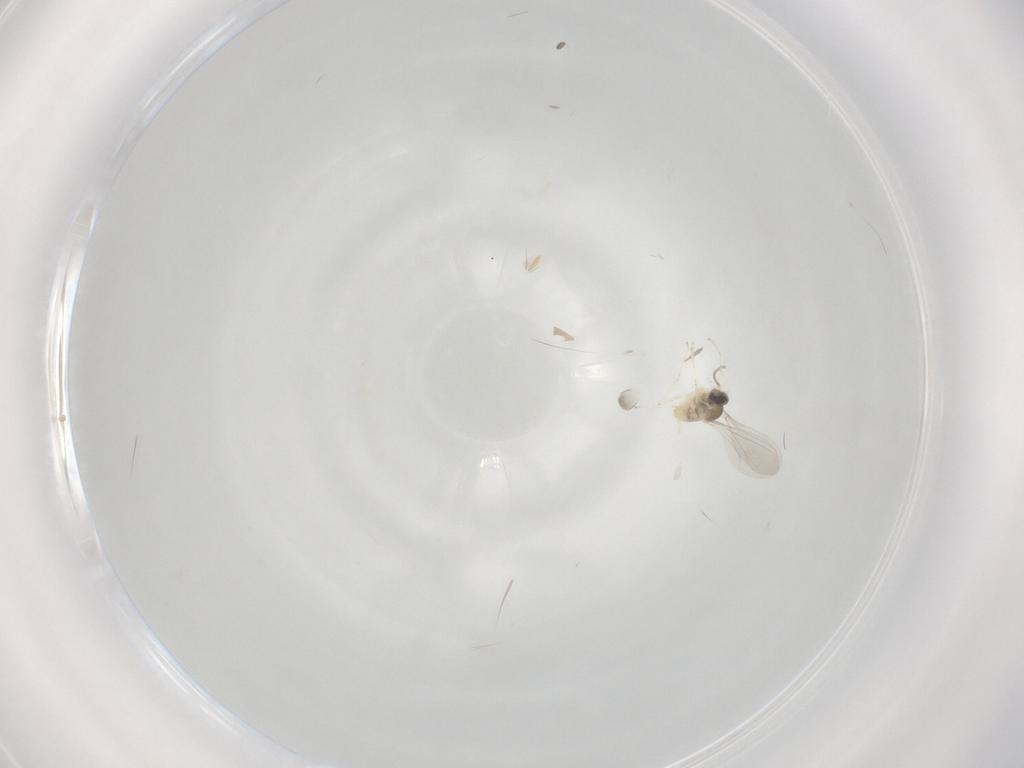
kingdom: Animalia
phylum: Arthropoda
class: Insecta
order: Diptera
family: Cecidomyiidae
